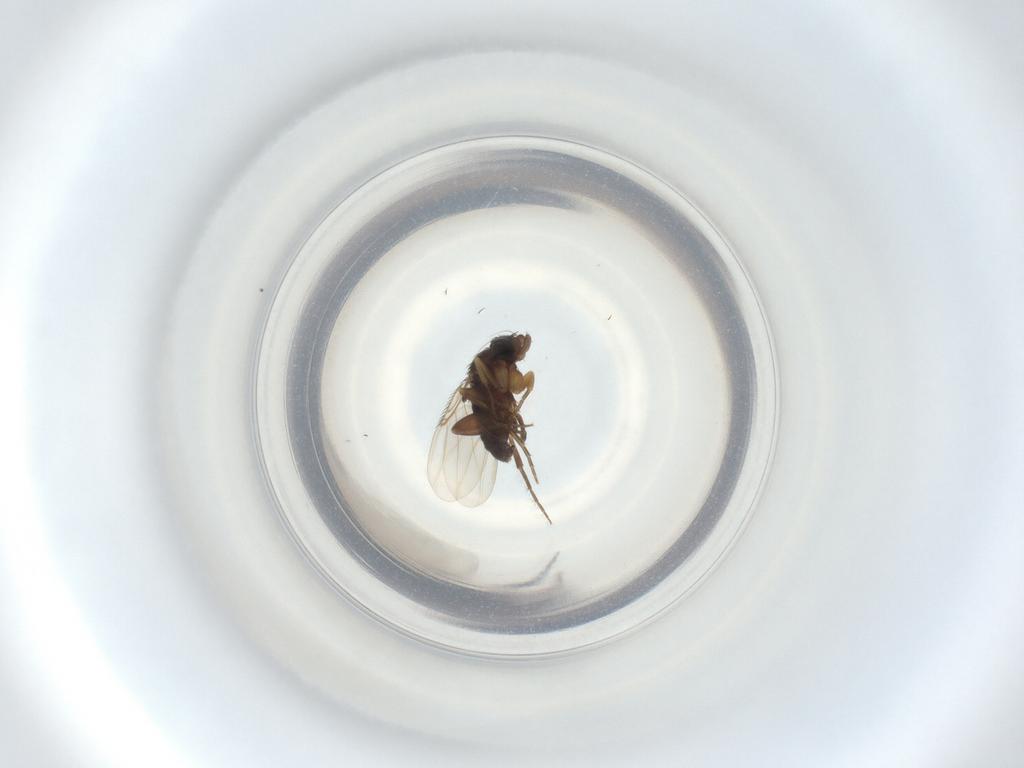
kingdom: Animalia
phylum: Arthropoda
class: Insecta
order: Diptera
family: Phoridae
